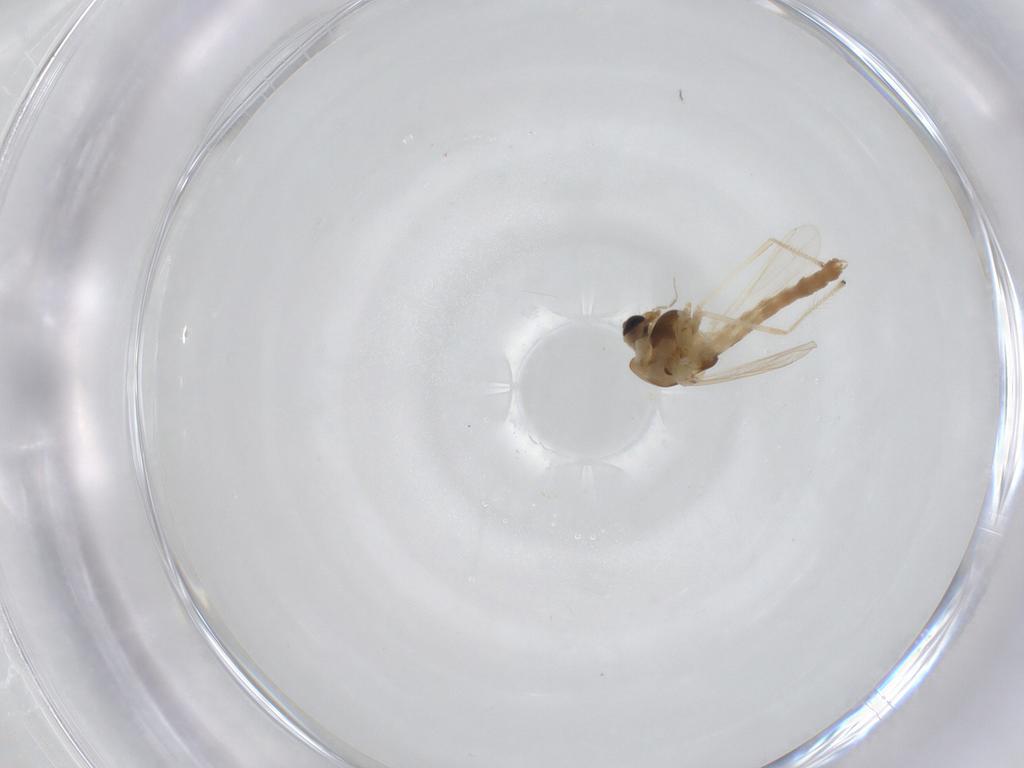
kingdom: Animalia
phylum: Arthropoda
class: Insecta
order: Diptera
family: Chironomidae
